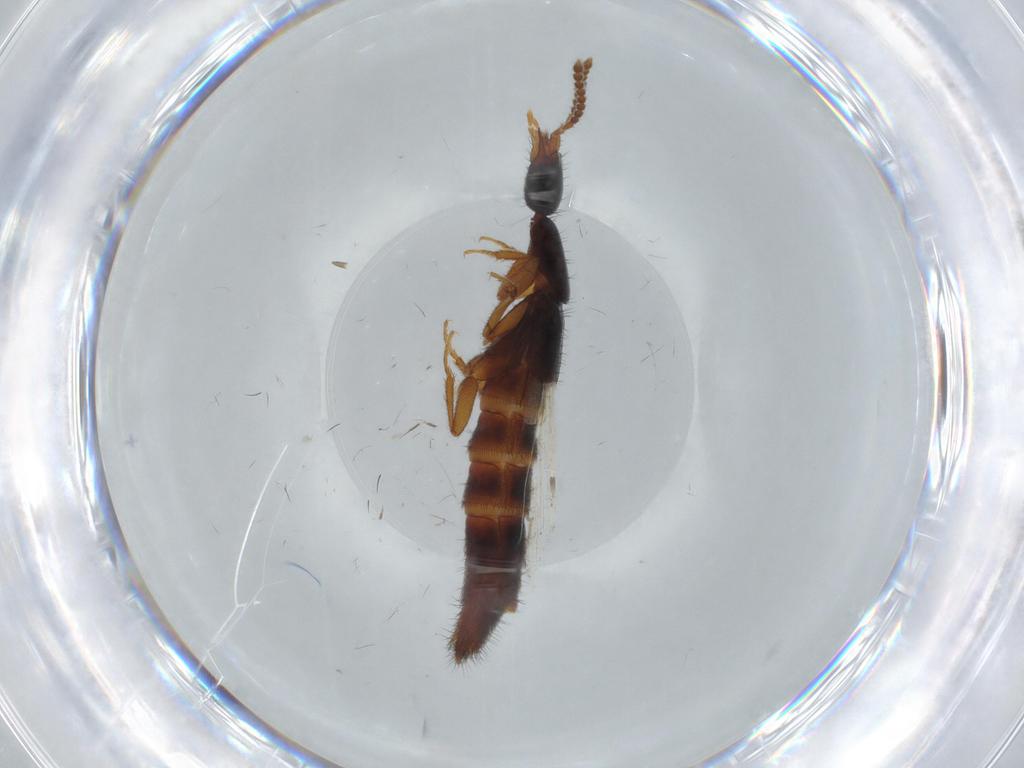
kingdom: Animalia
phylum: Arthropoda
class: Insecta
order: Coleoptera
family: Staphylinidae
